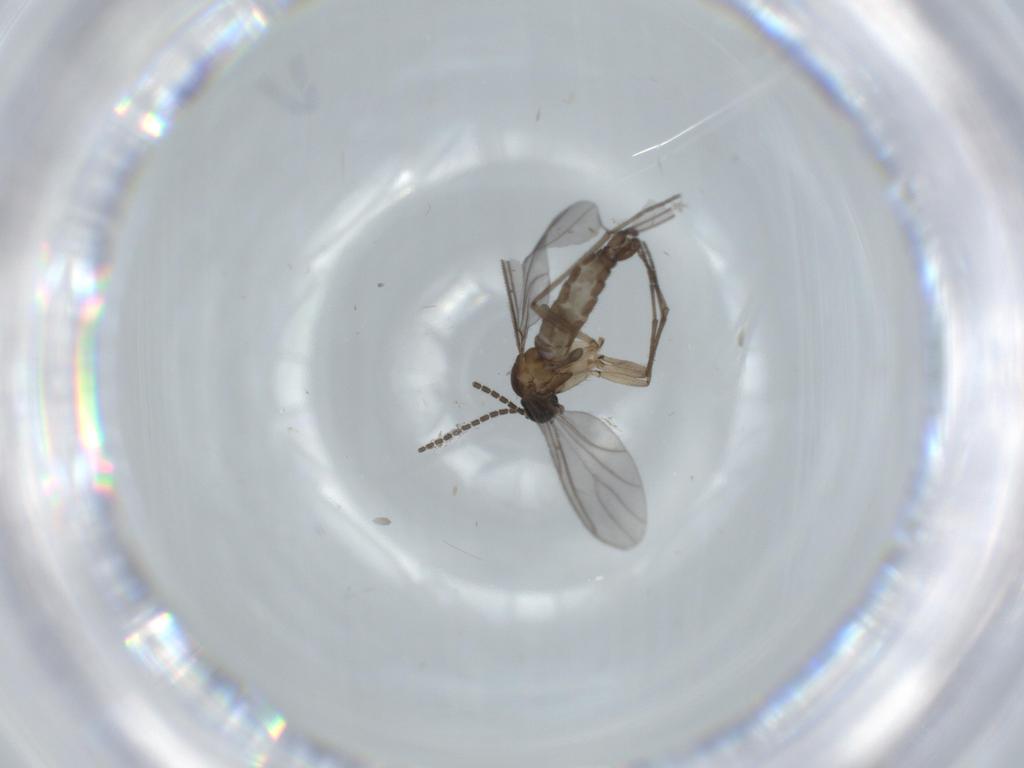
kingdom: Animalia
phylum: Arthropoda
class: Insecta
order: Diptera
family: Sciaridae
